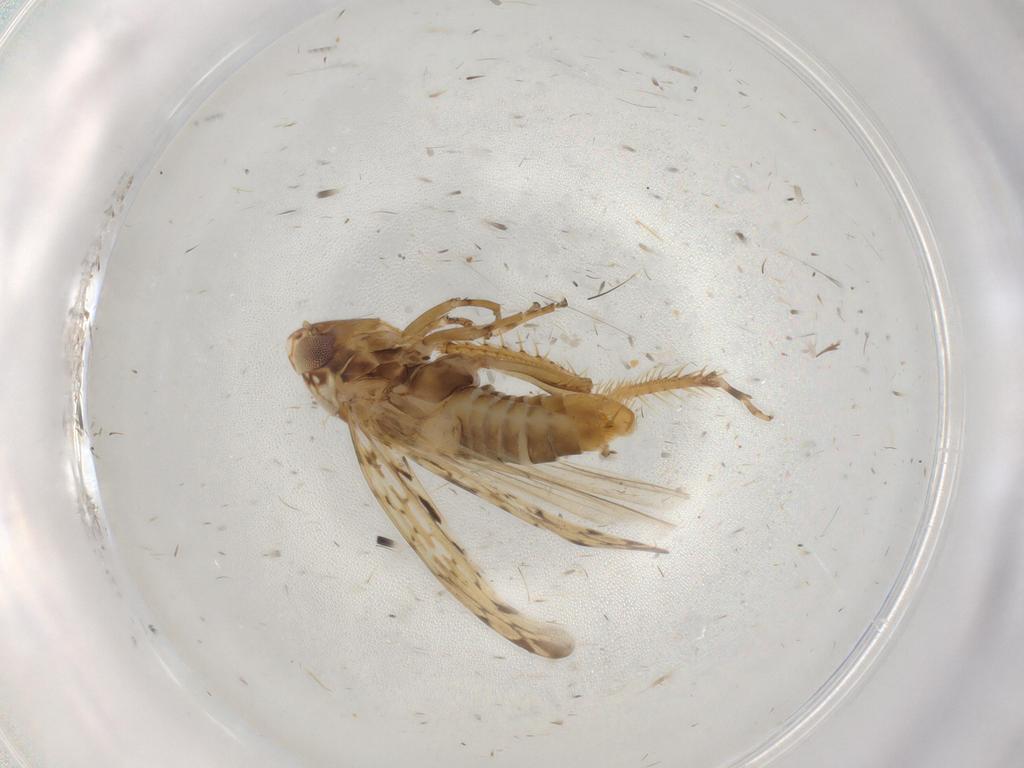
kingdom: Animalia
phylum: Arthropoda
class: Insecta
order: Hemiptera
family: Cicadellidae
